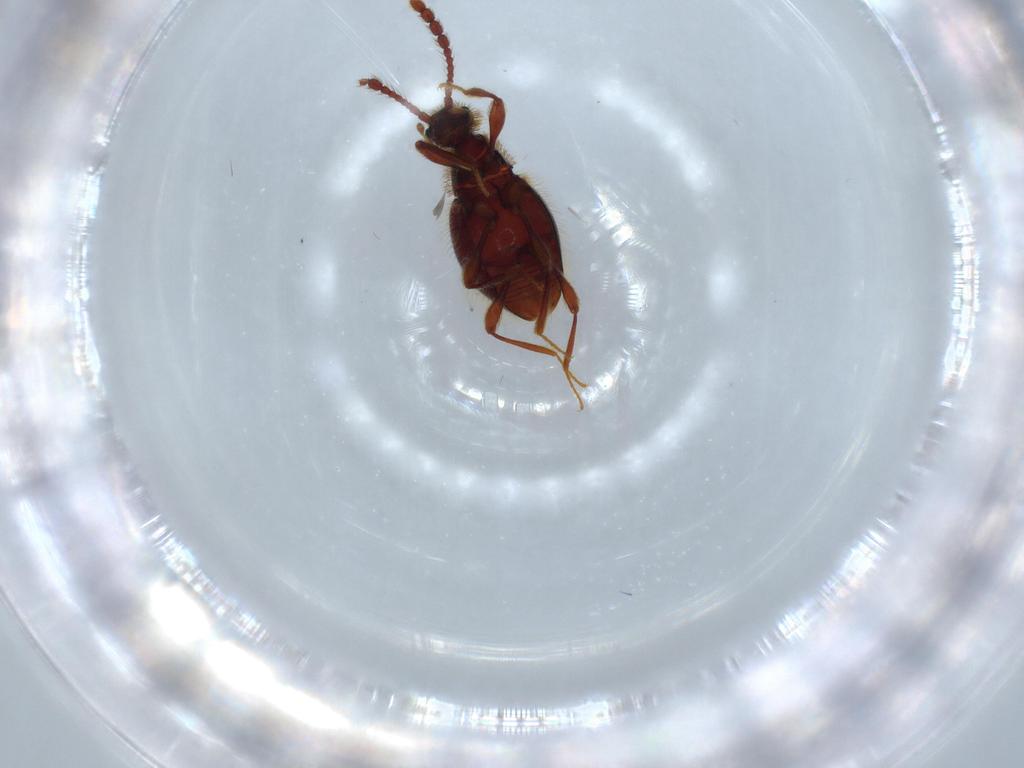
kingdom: Animalia
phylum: Arthropoda
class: Insecta
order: Coleoptera
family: Staphylinidae
